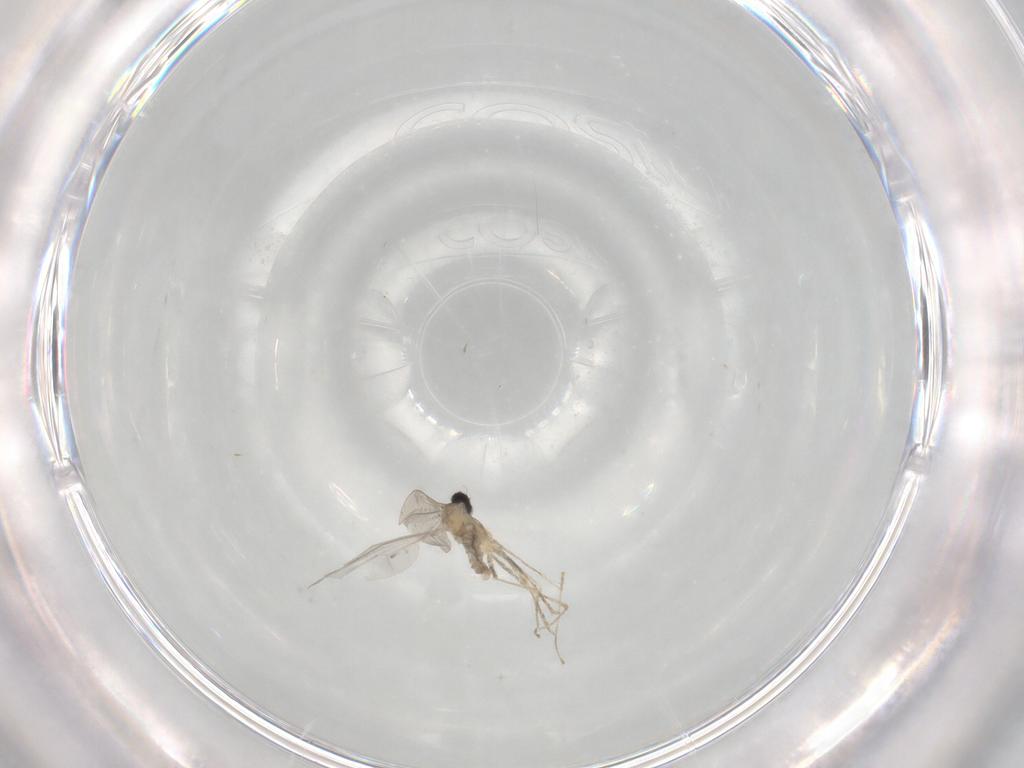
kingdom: Animalia
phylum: Arthropoda
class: Insecta
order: Diptera
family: Cecidomyiidae
